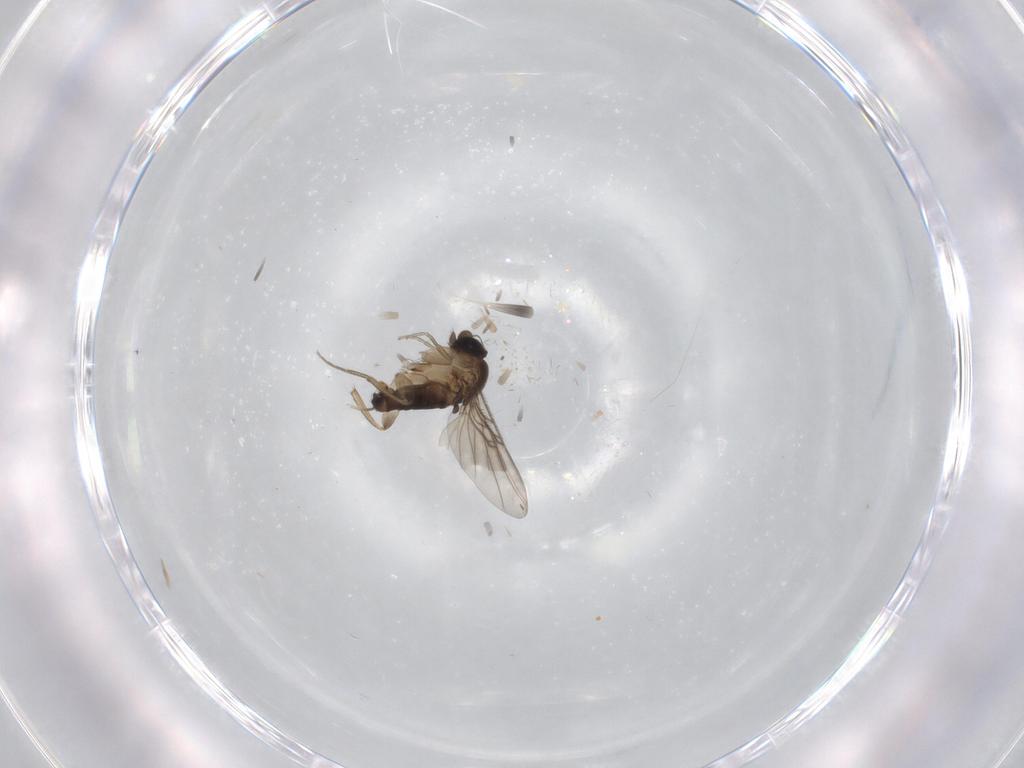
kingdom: Animalia
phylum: Arthropoda
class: Insecta
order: Diptera
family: Phoridae
